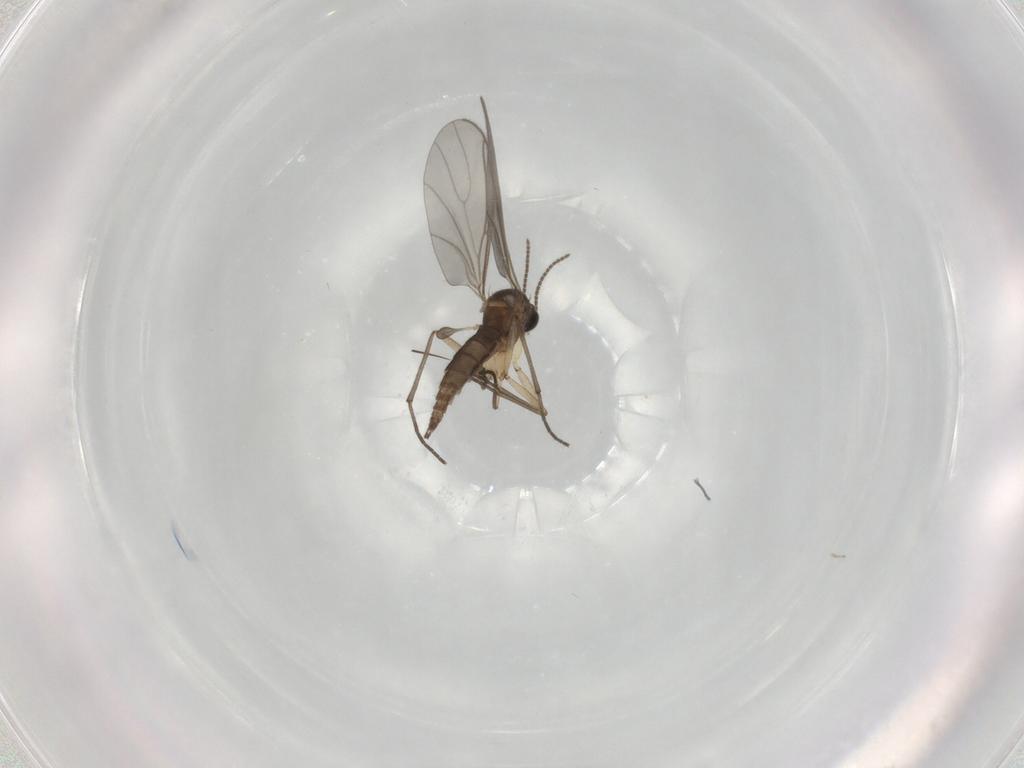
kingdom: Animalia
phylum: Arthropoda
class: Insecta
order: Diptera
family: Sciaridae
